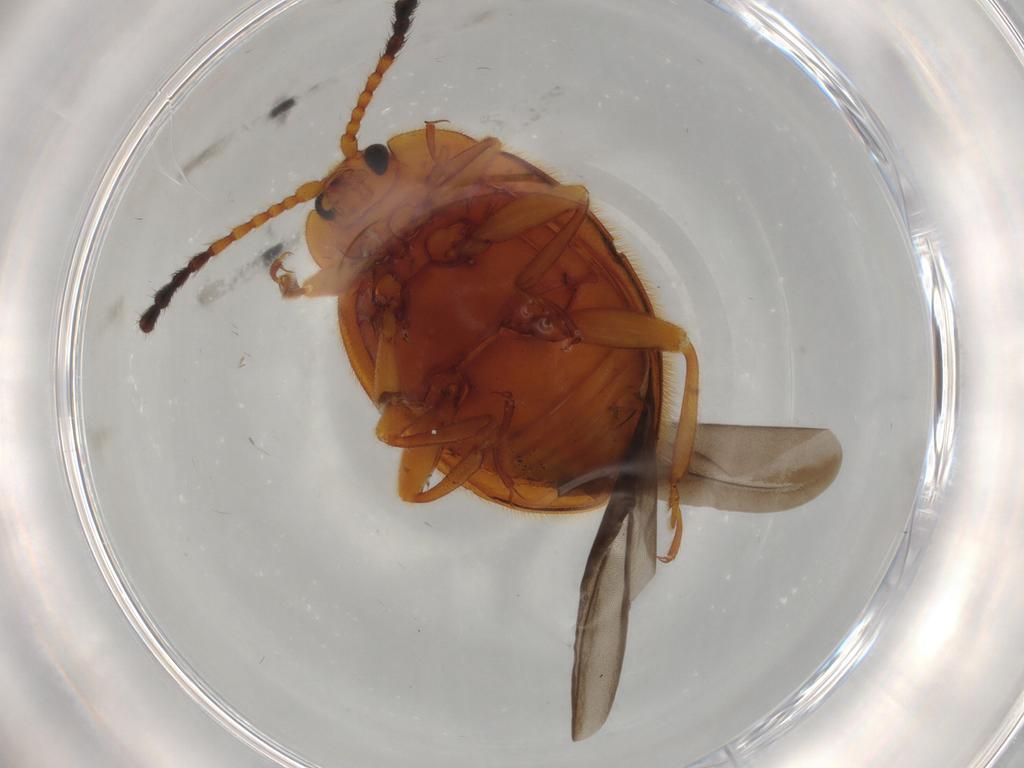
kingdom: Animalia
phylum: Arthropoda
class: Insecta
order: Coleoptera
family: Endomychidae
